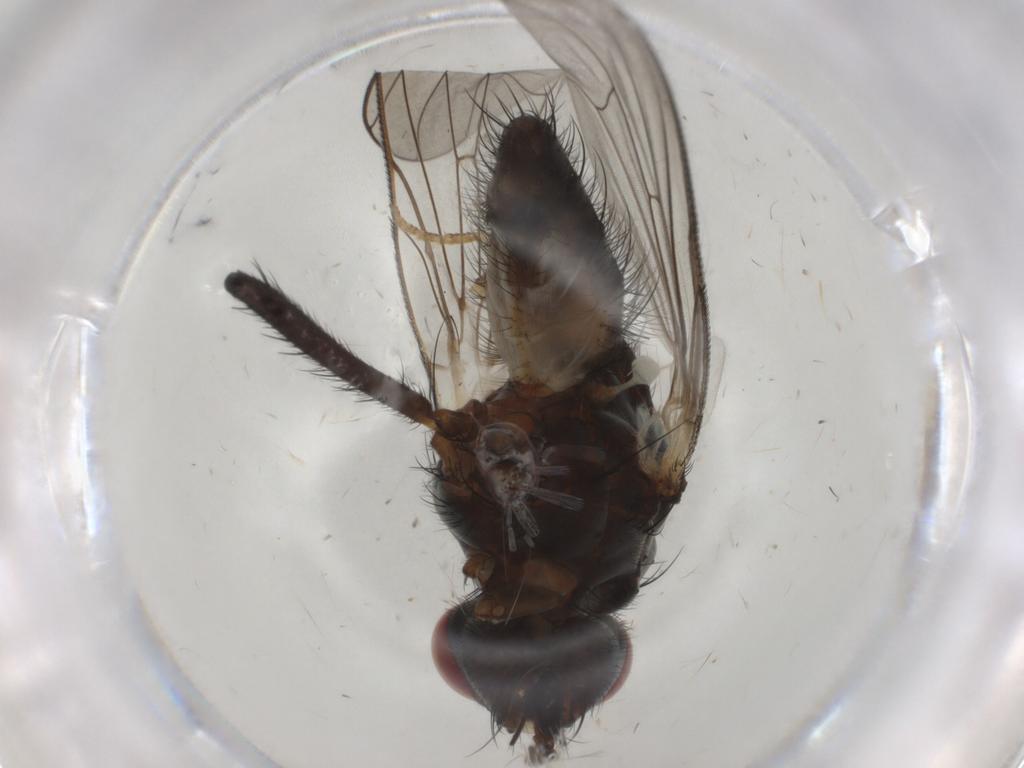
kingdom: Animalia
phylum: Arthropoda
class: Insecta
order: Diptera
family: Anthomyiidae
